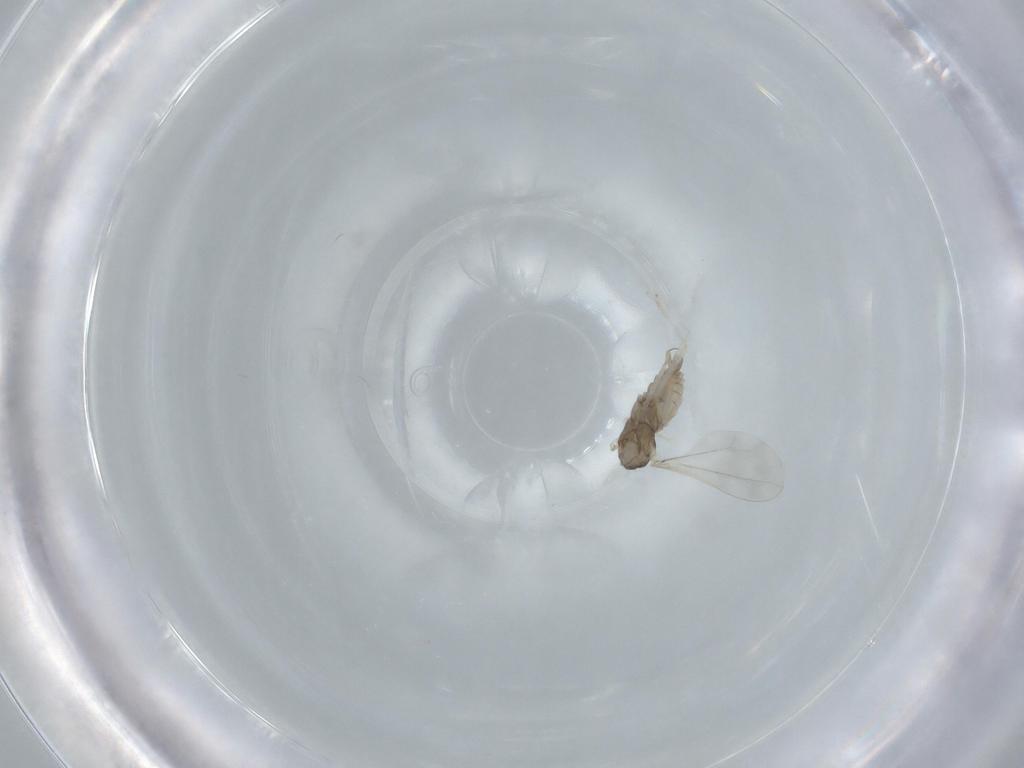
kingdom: Animalia
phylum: Arthropoda
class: Insecta
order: Diptera
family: Cecidomyiidae
